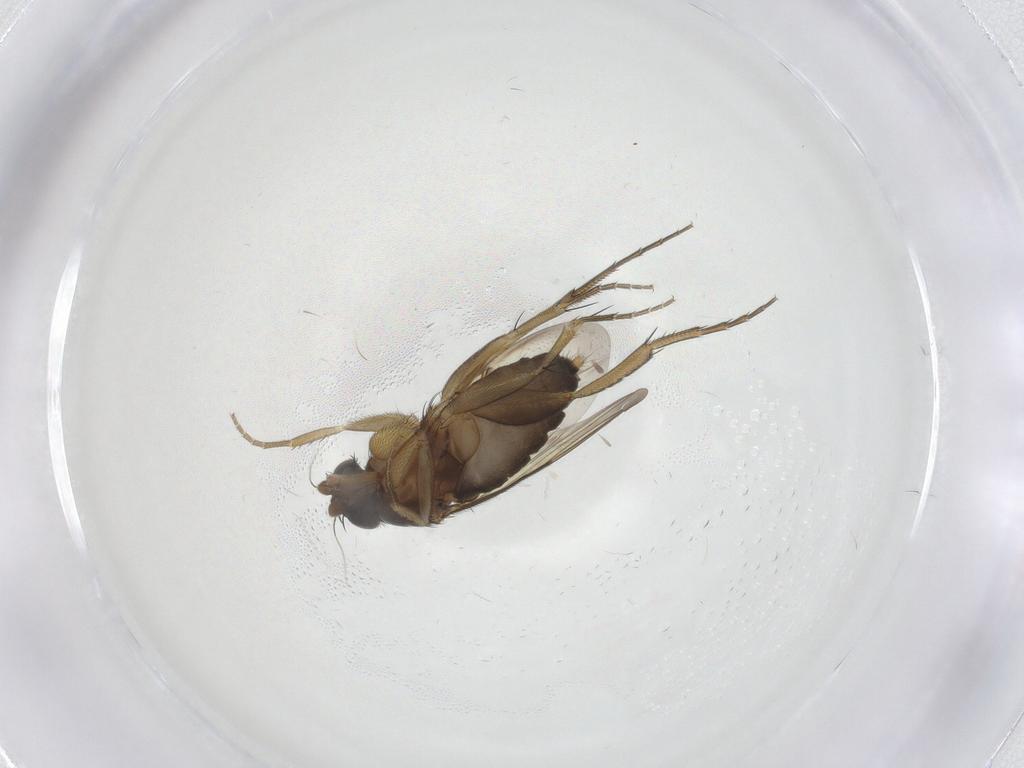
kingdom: Animalia
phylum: Arthropoda
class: Insecta
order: Diptera
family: Phoridae
